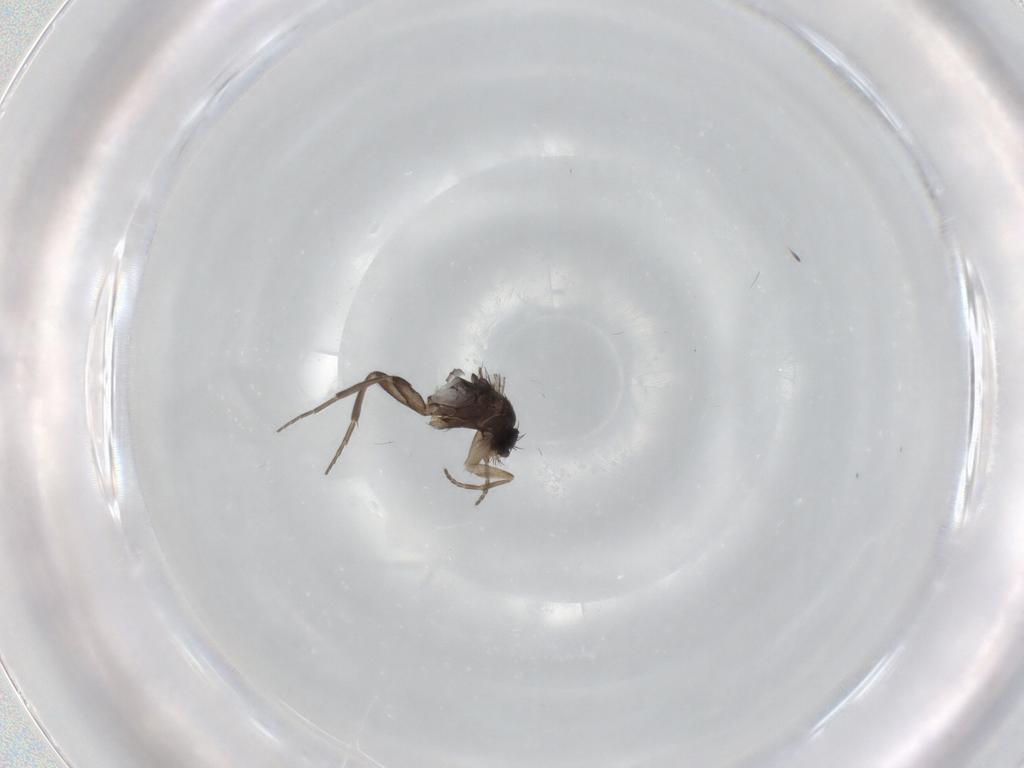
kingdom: Animalia
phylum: Arthropoda
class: Insecta
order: Diptera
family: Phoridae
